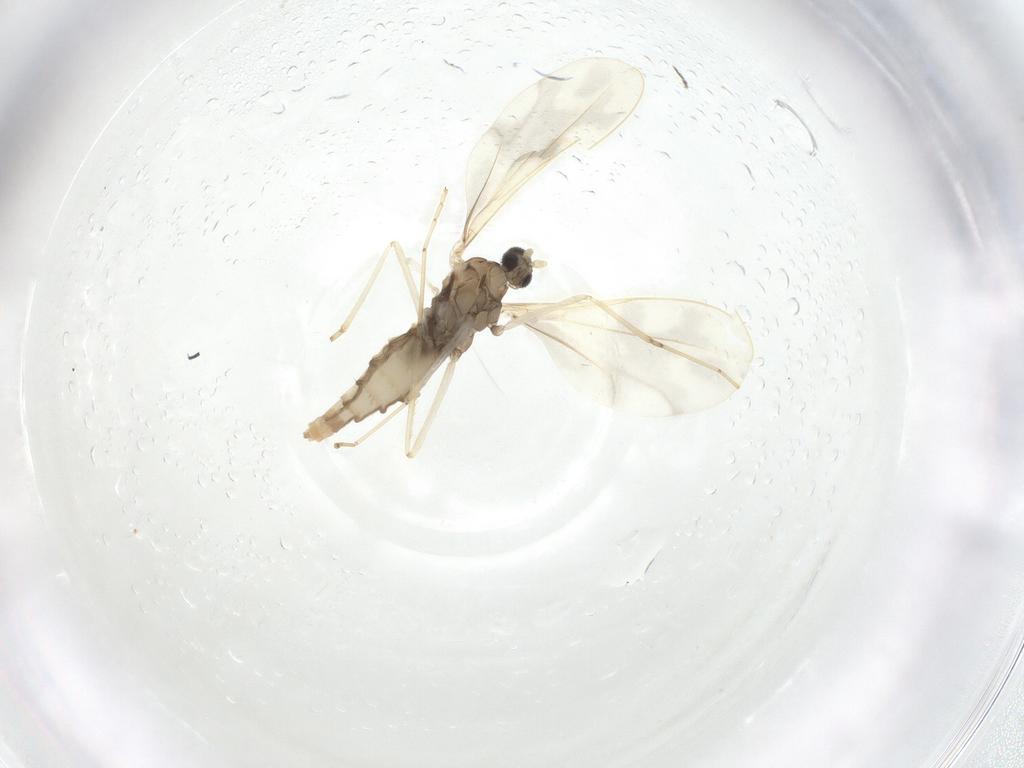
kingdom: Animalia
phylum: Arthropoda
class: Insecta
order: Diptera
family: Cecidomyiidae
